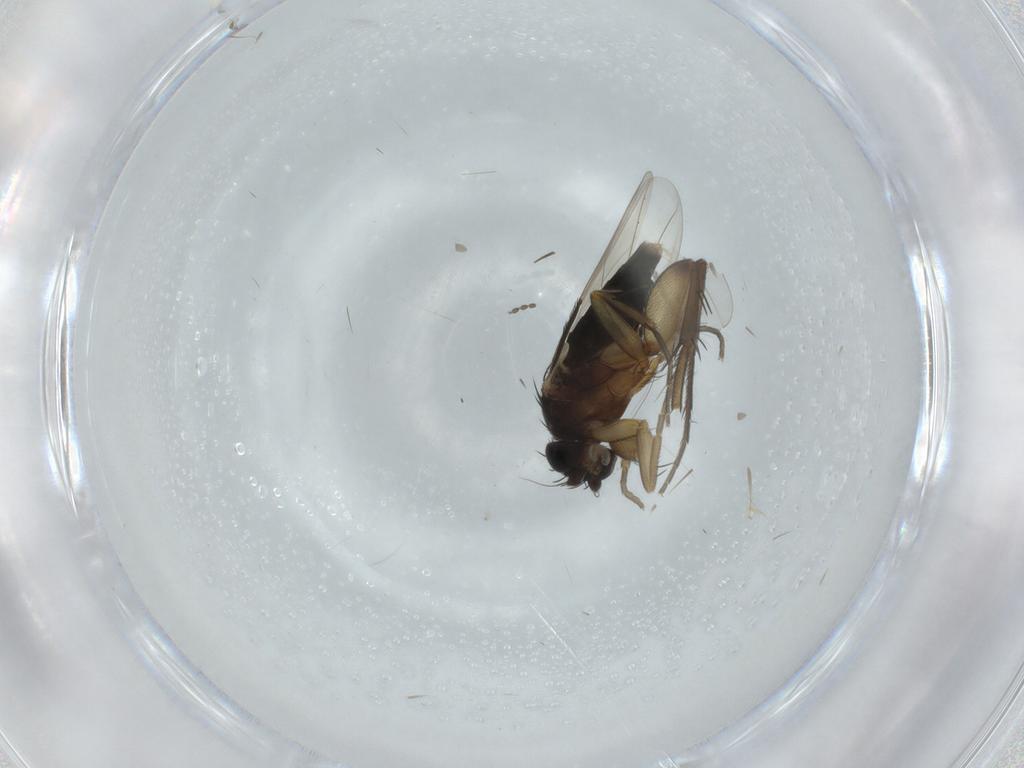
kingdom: Animalia
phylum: Arthropoda
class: Insecta
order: Diptera
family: Phoridae
